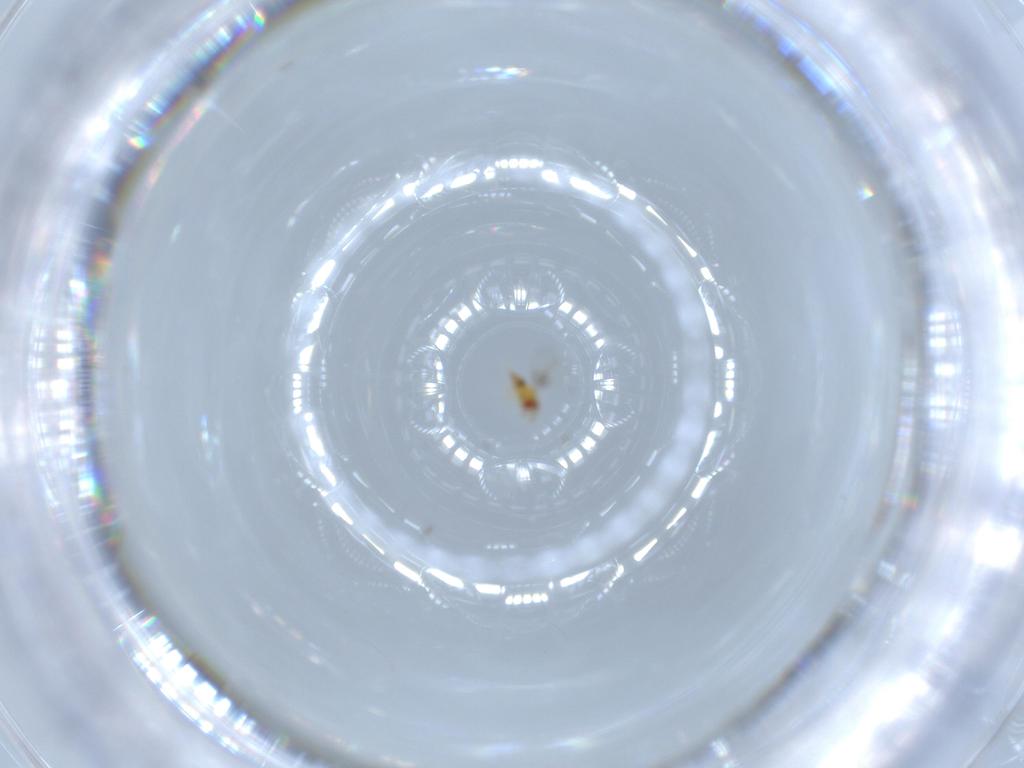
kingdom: Animalia
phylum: Arthropoda
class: Insecta
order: Hymenoptera
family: Trichogrammatidae
